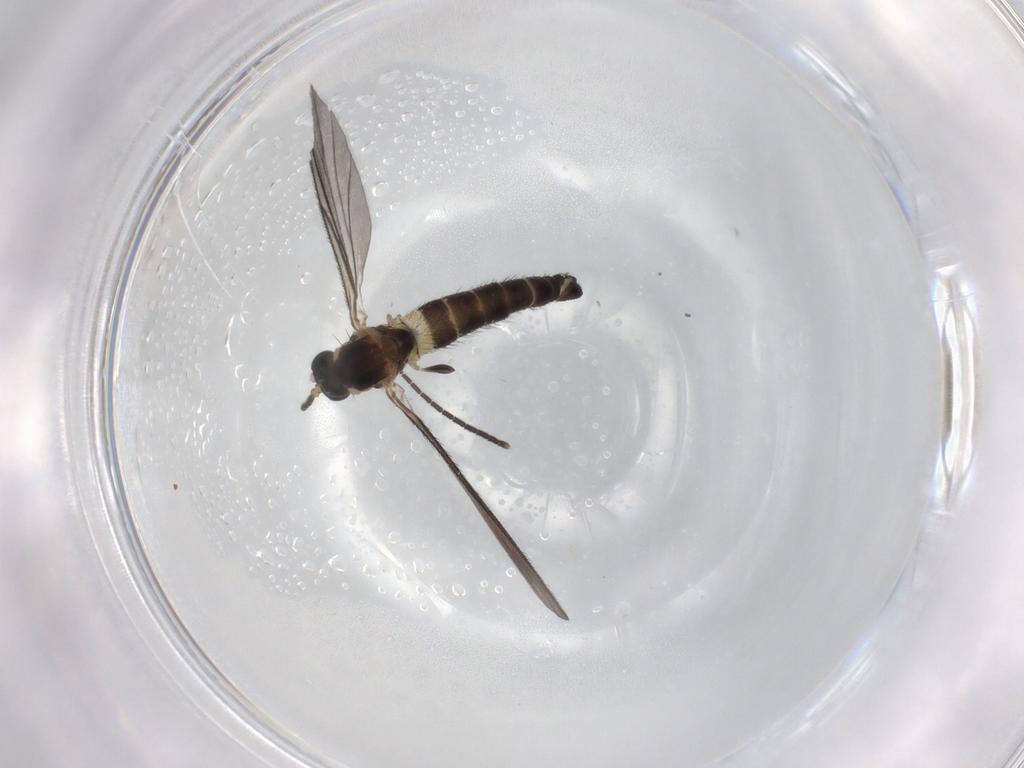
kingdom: Animalia
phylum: Arthropoda
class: Insecta
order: Diptera
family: Sciaridae
